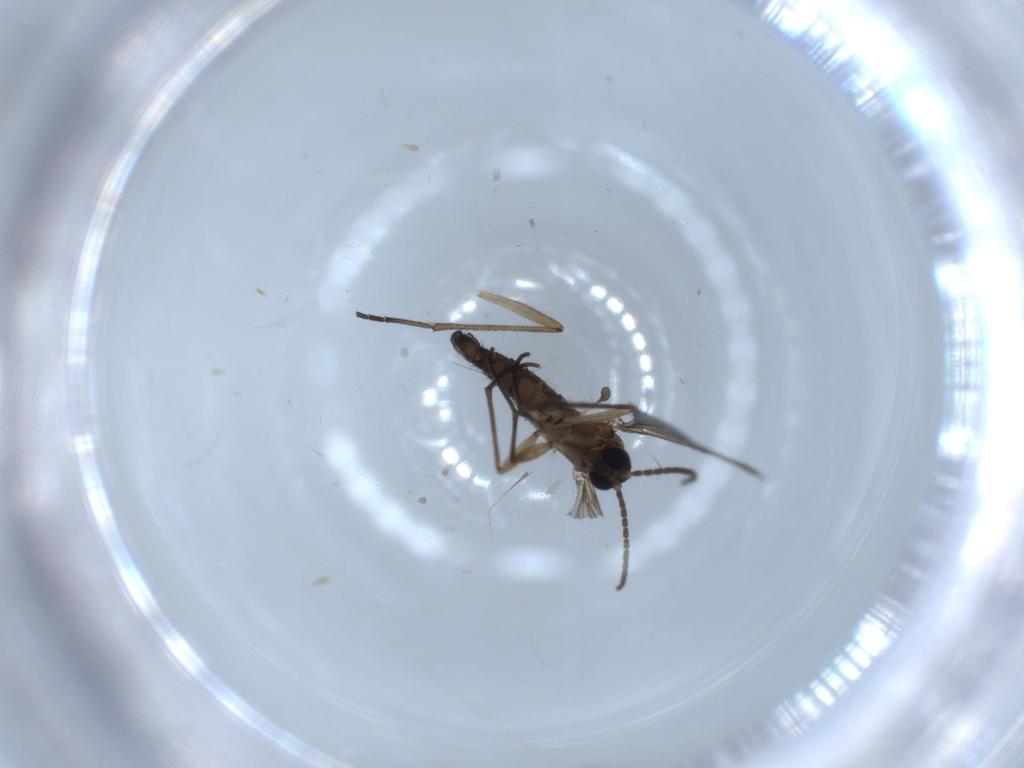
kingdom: Animalia
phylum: Arthropoda
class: Insecta
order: Diptera
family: Sciaridae
